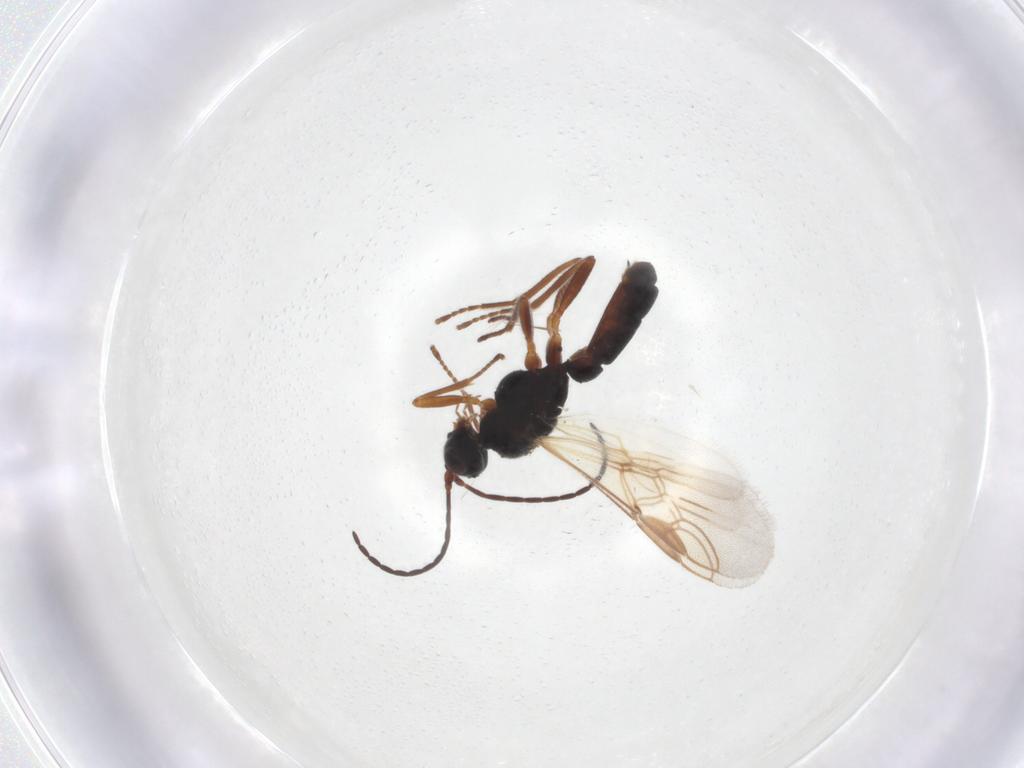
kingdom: Animalia
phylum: Arthropoda
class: Insecta
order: Hymenoptera
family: Braconidae
